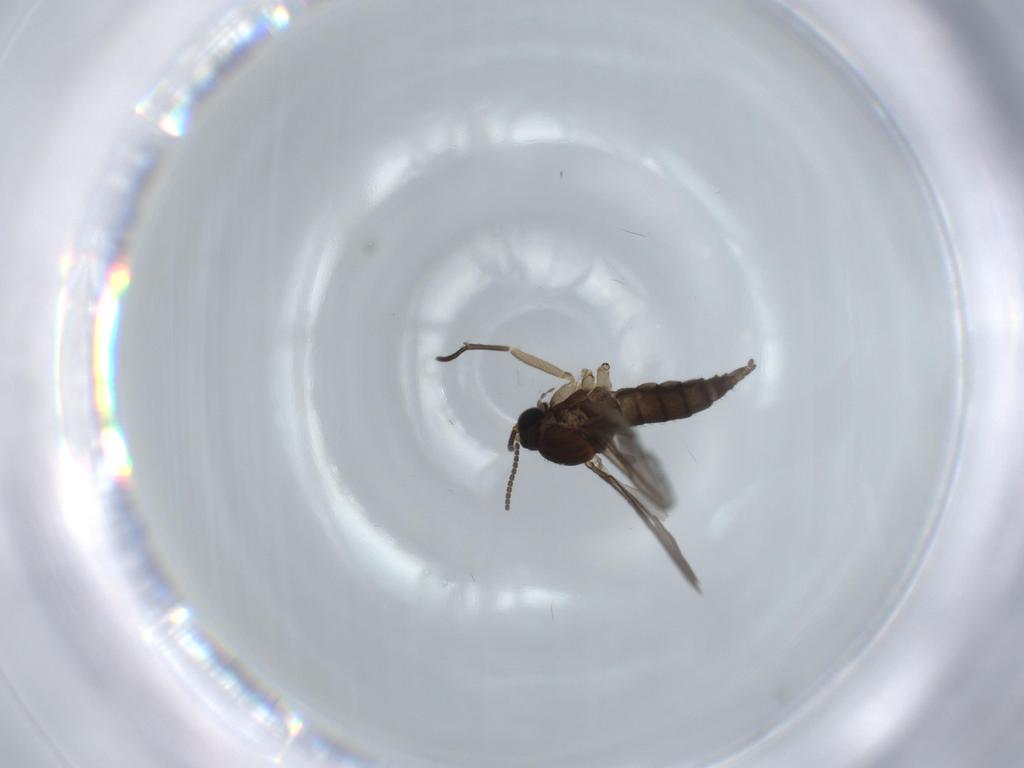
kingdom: Animalia
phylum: Arthropoda
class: Insecta
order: Diptera
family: Sciaridae
